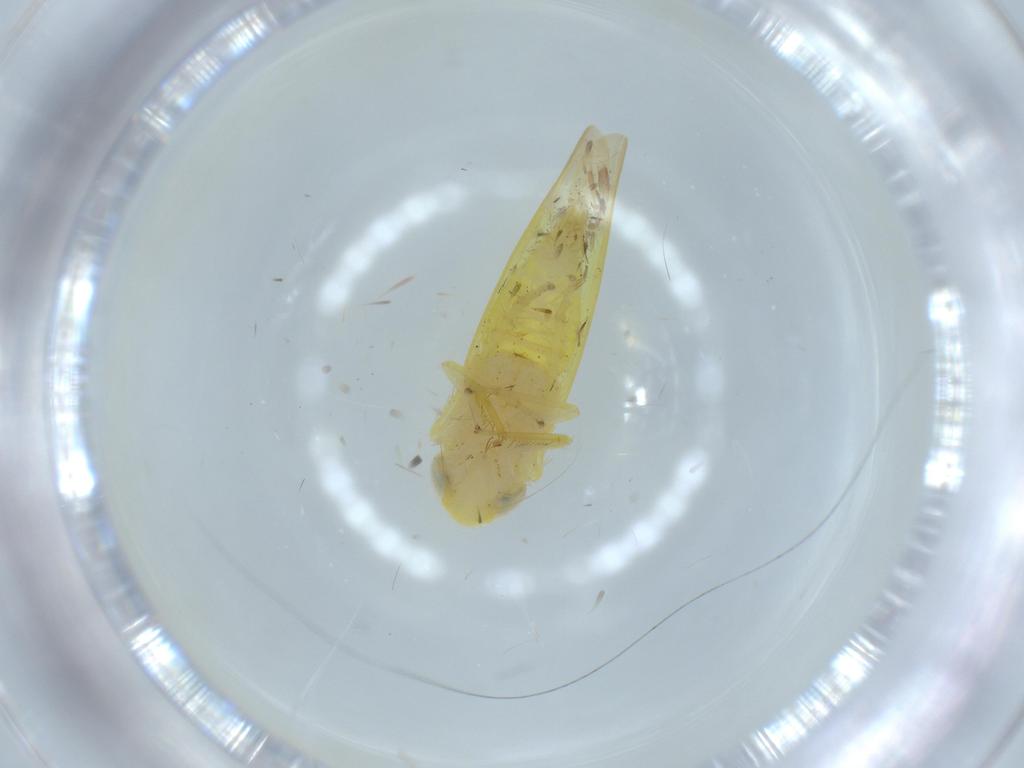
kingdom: Animalia
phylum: Arthropoda
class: Insecta
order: Hemiptera
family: Cicadellidae
